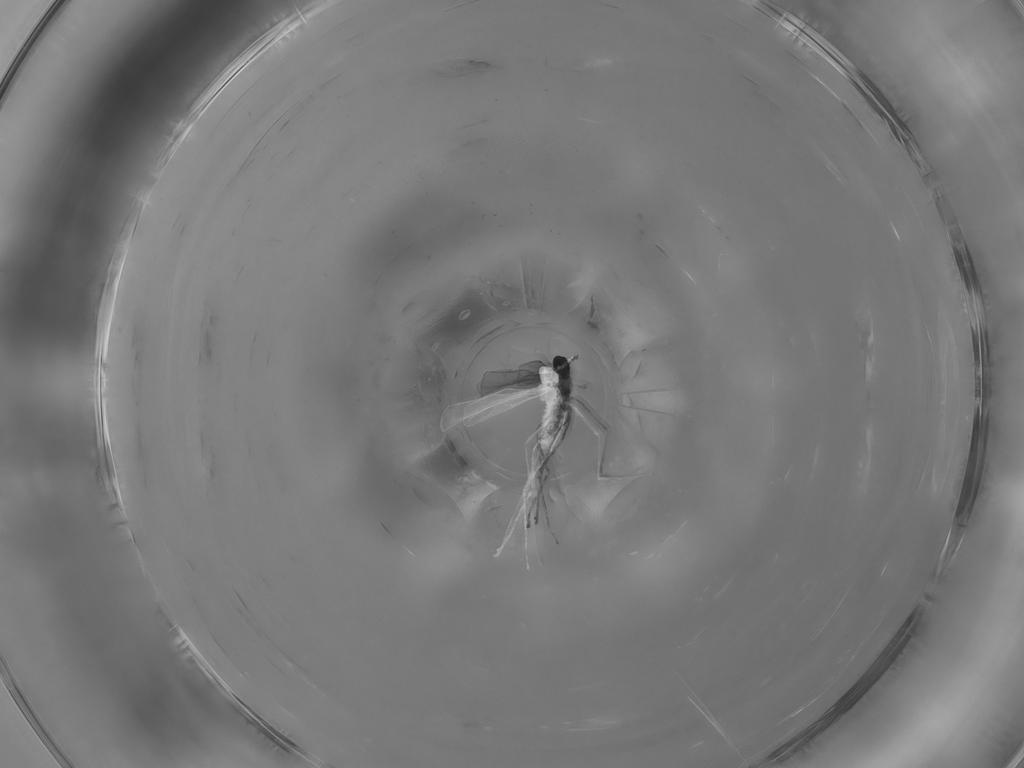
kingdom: Animalia
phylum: Arthropoda
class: Insecta
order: Diptera
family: Cecidomyiidae
